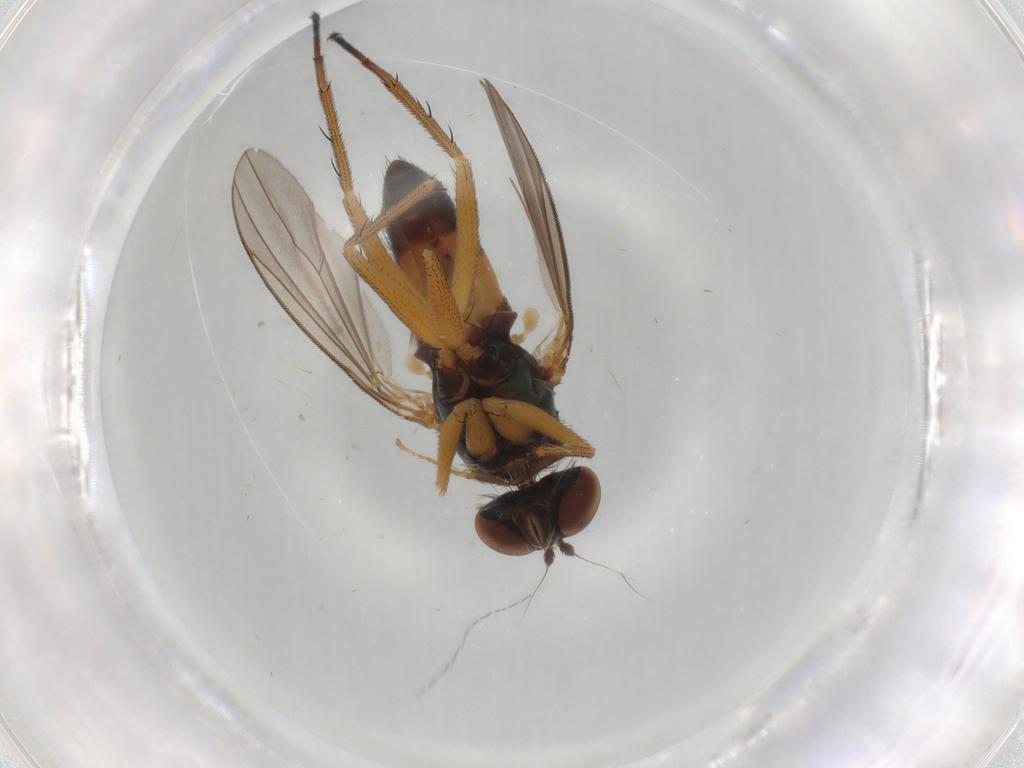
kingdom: Animalia
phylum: Arthropoda
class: Insecta
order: Diptera
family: Dolichopodidae
